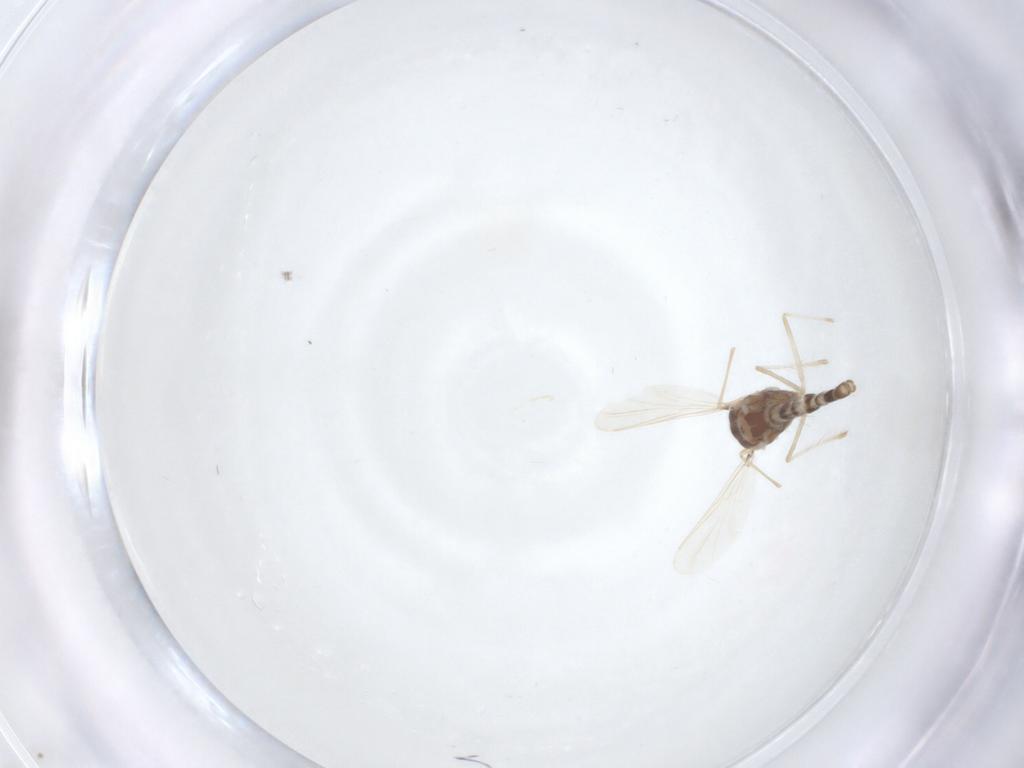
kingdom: Animalia
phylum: Arthropoda
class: Insecta
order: Diptera
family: Chironomidae
